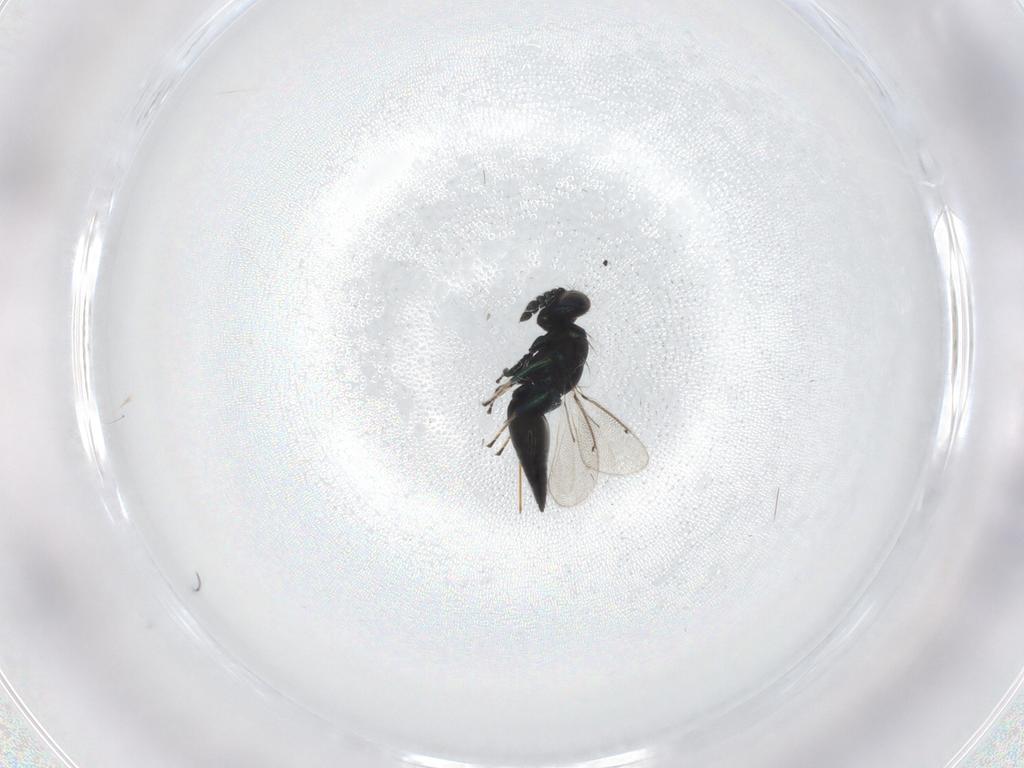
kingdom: Animalia
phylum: Arthropoda
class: Insecta
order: Hymenoptera
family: Eulophidae
